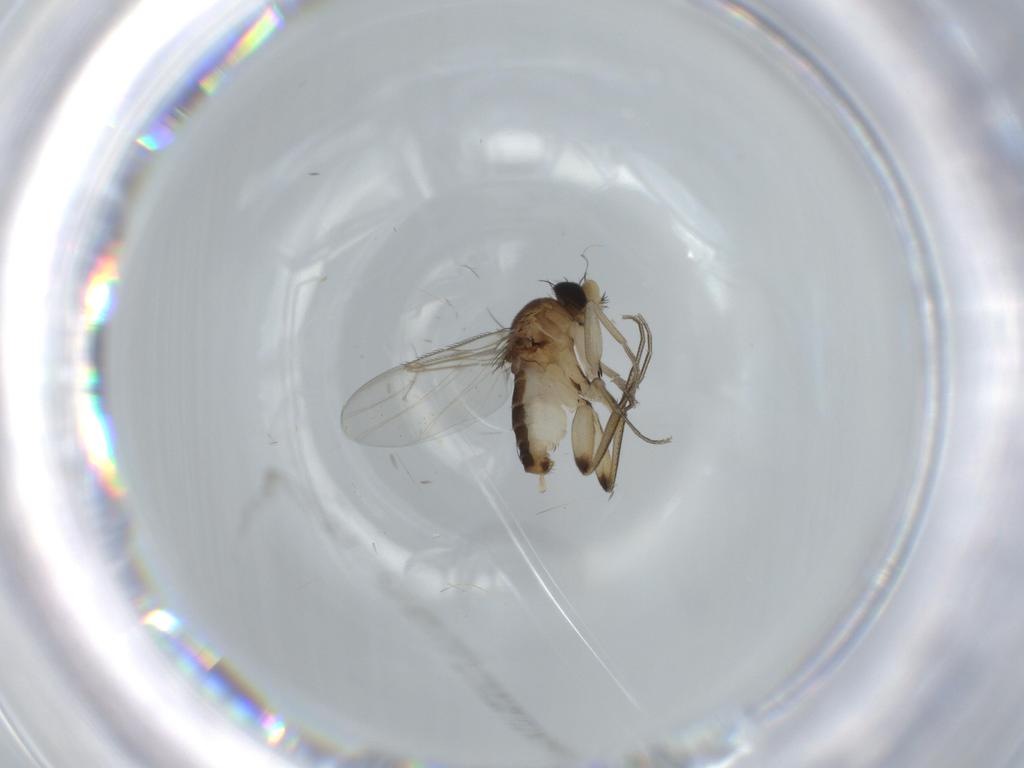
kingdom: Animalia
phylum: Arthropoda
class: Insecta
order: Diptera
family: Phoridae
